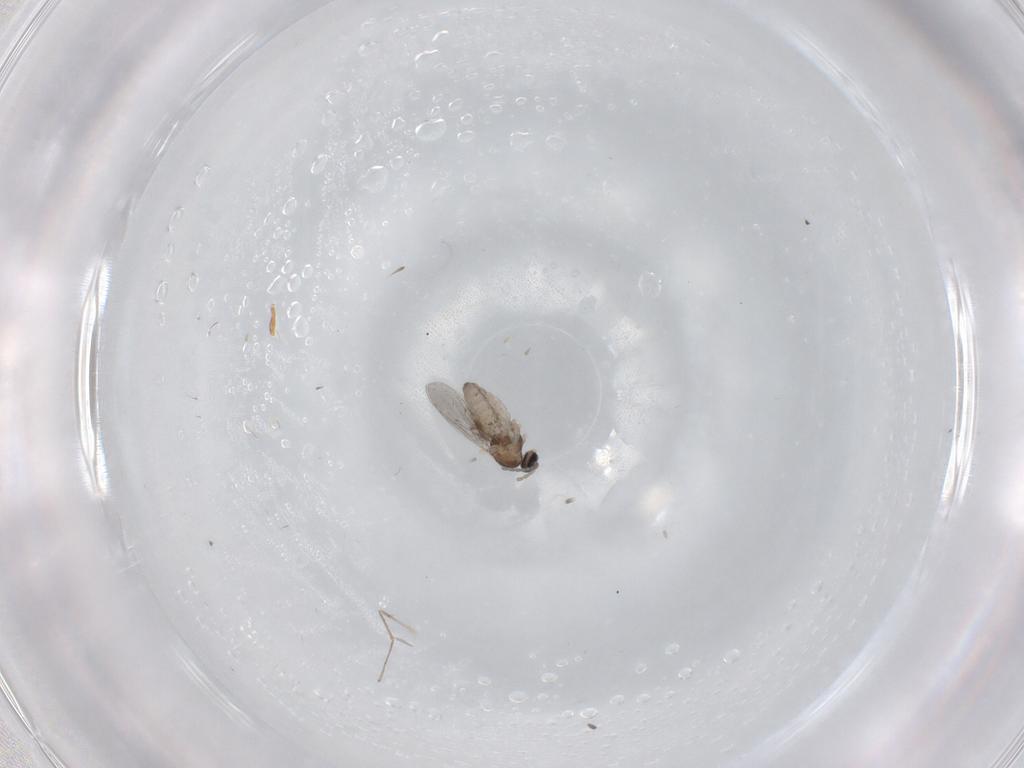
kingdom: Animalia
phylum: Arthropoda
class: Insecta
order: Diptera
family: Cecidomyiidae
